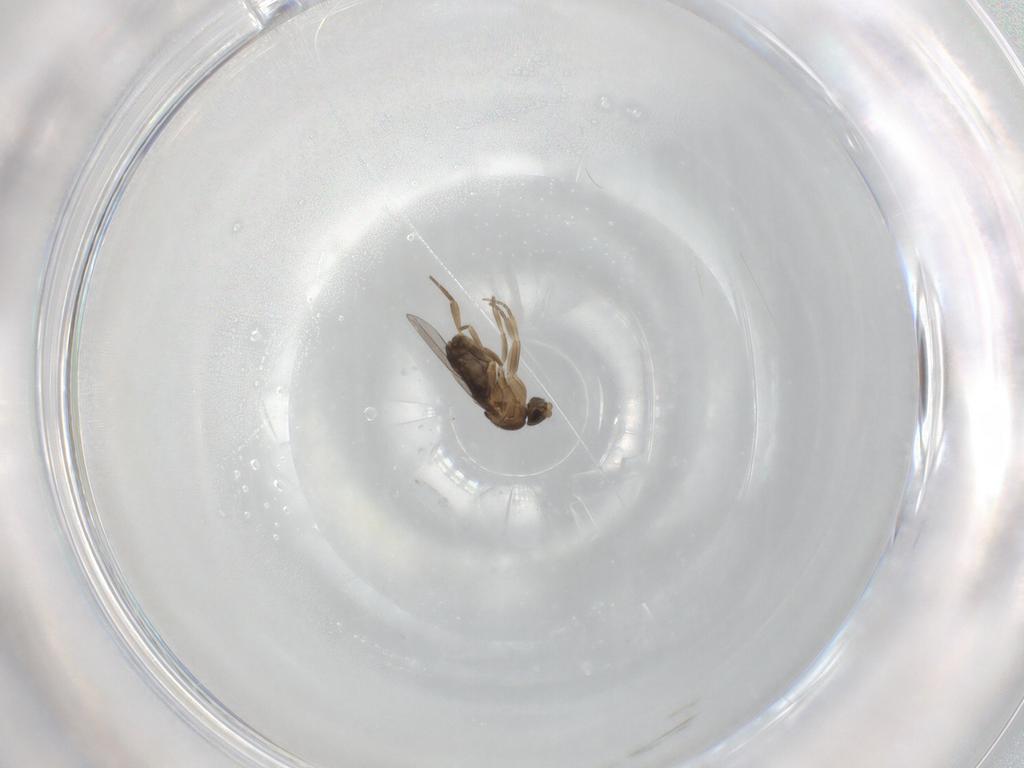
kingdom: Animalia
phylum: Arthropoda
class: Insecta
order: Diptera
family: Phoridae
